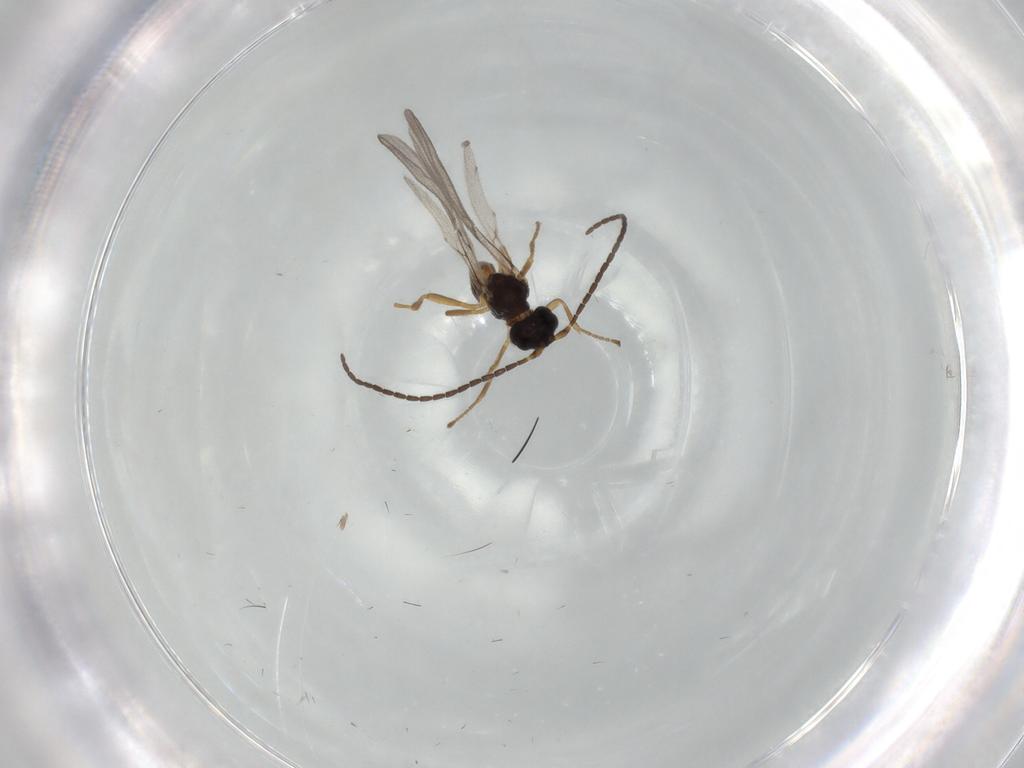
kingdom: Animalia
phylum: Arthropoda
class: Insecta
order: Hymenoptera
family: Braconidae
